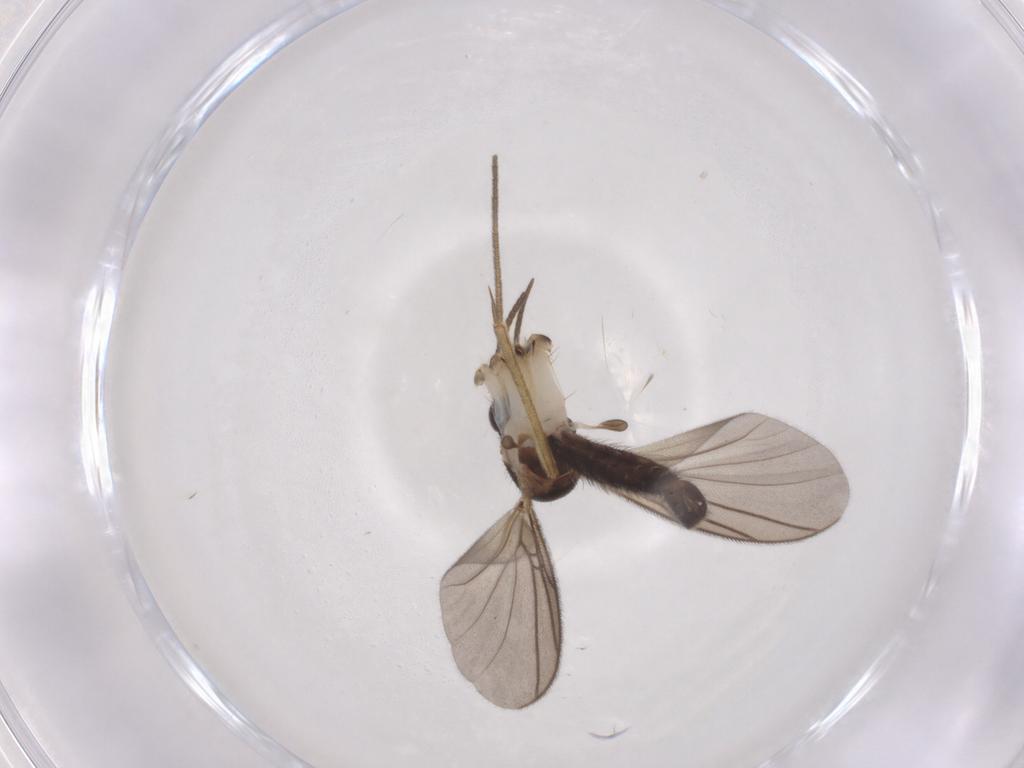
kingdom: Animalia
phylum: Arthropoda
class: Insecta
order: Diptera
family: Mycetophilidae
